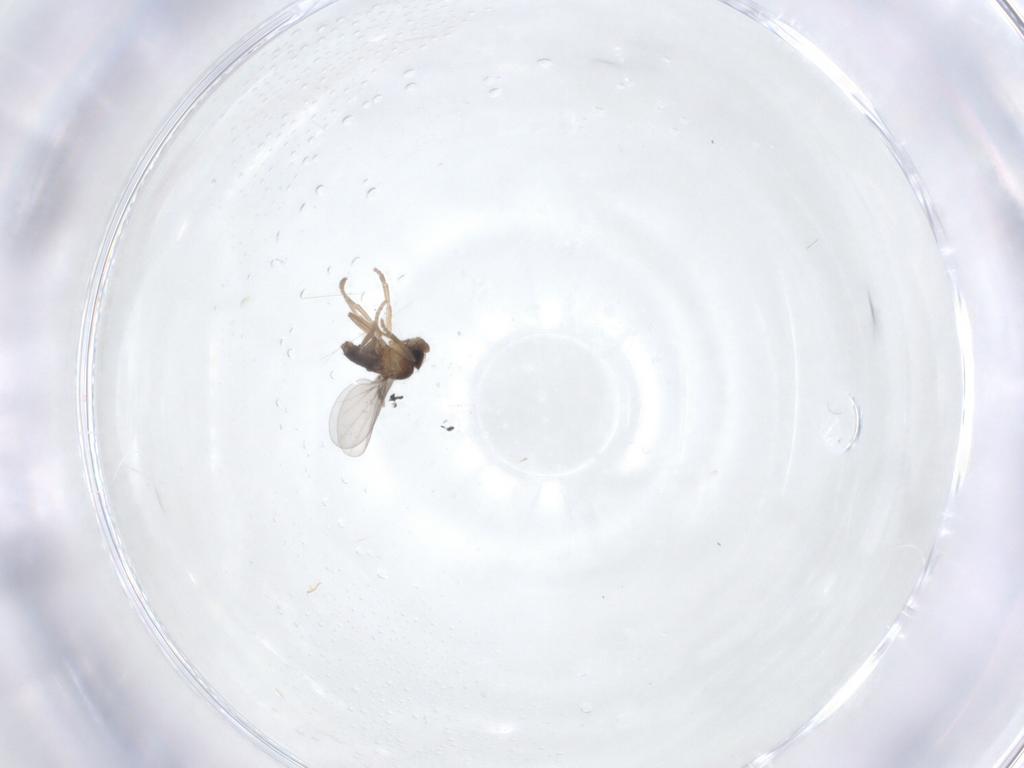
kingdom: Animalia
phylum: Arthropoda
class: Insecta
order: Diptera
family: Phoridae
